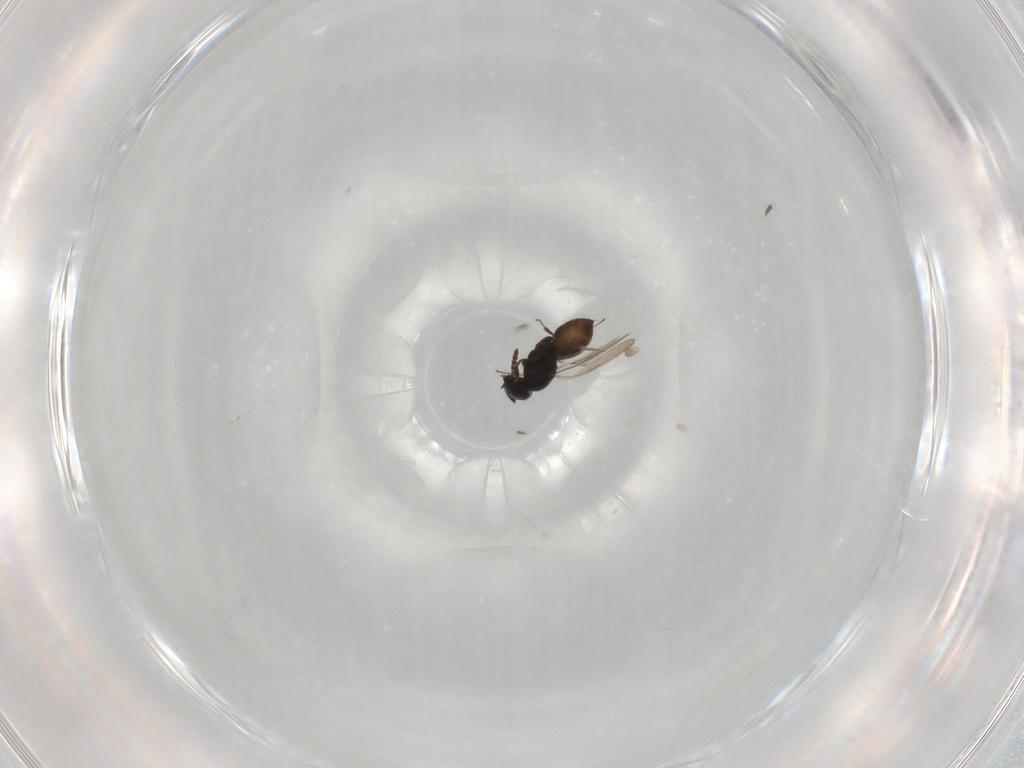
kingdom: Animalia
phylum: Arthropoda
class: Insecta
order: Hymenoptera
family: Scelionidae
